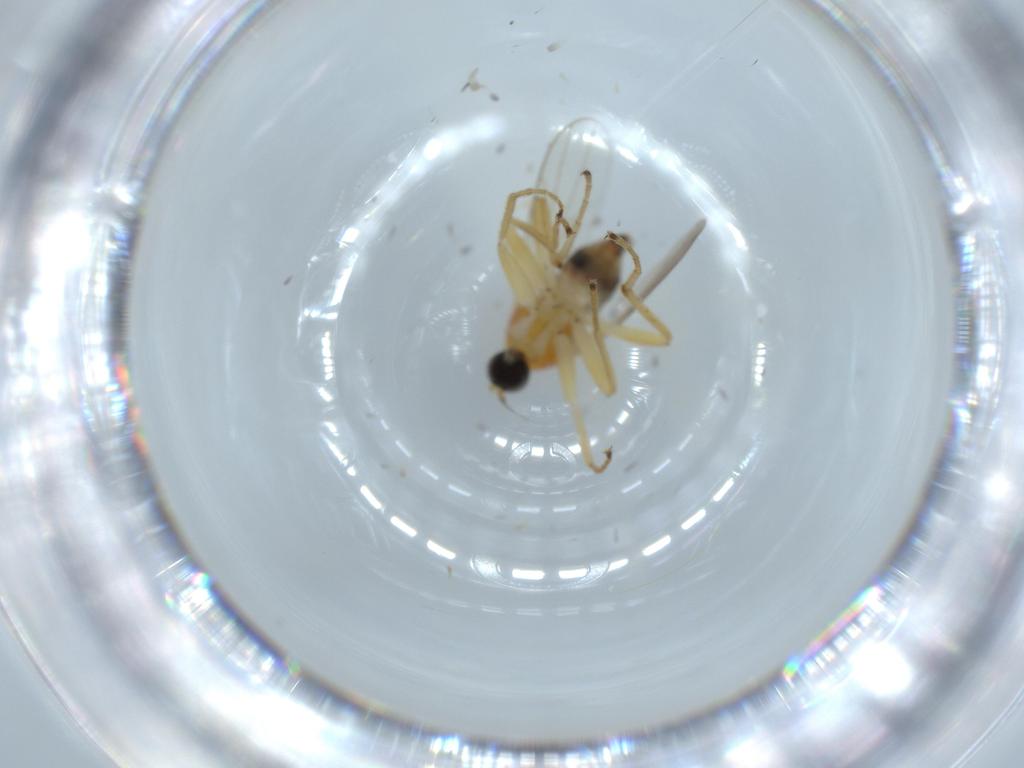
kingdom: Animalia
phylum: Arthropoda
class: Insecta
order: Diptera
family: Hybotidae
